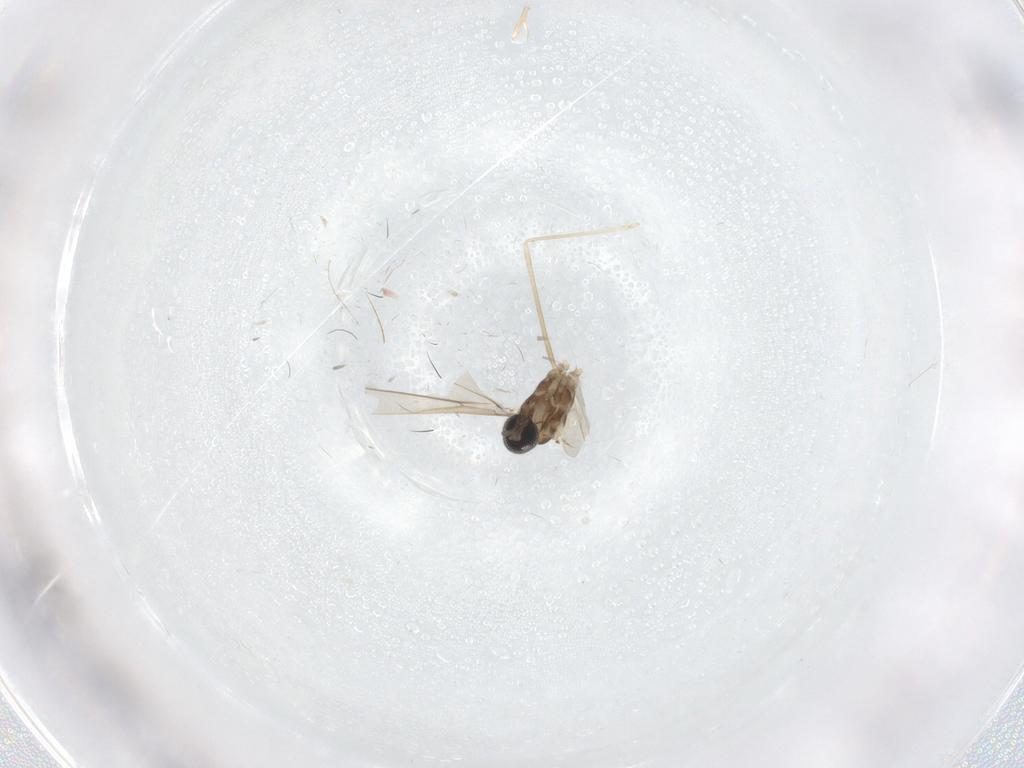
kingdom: Animalia
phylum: Arthropoda
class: Insecta
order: Diptera
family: Cecidomyiidae
